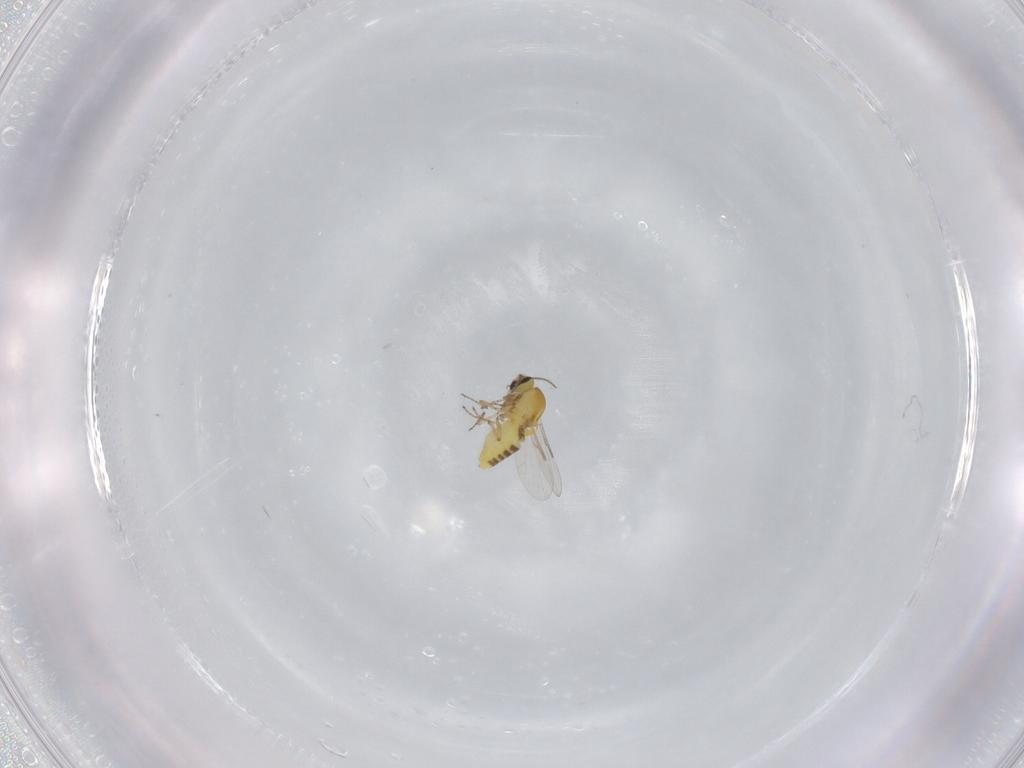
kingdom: Animalia
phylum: Arthropoda
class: Insecta
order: Diptera
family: Ceratopogonidae
